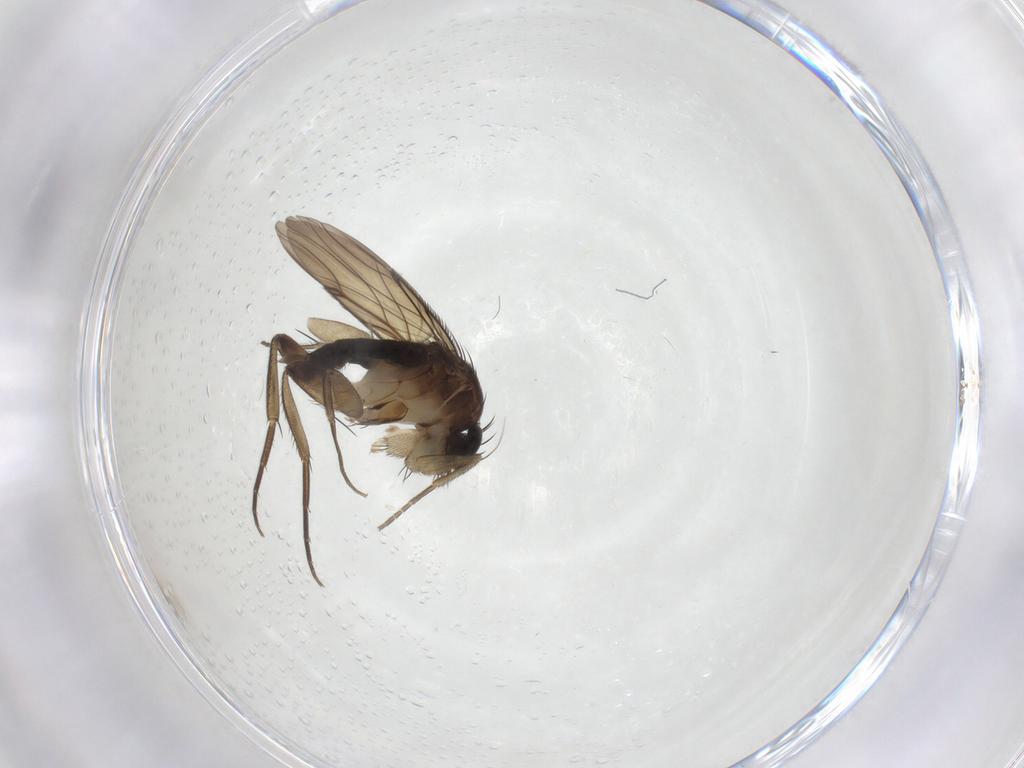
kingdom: Animalia
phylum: Arthropoda
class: Insecta
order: Diptera
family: Phoridae
